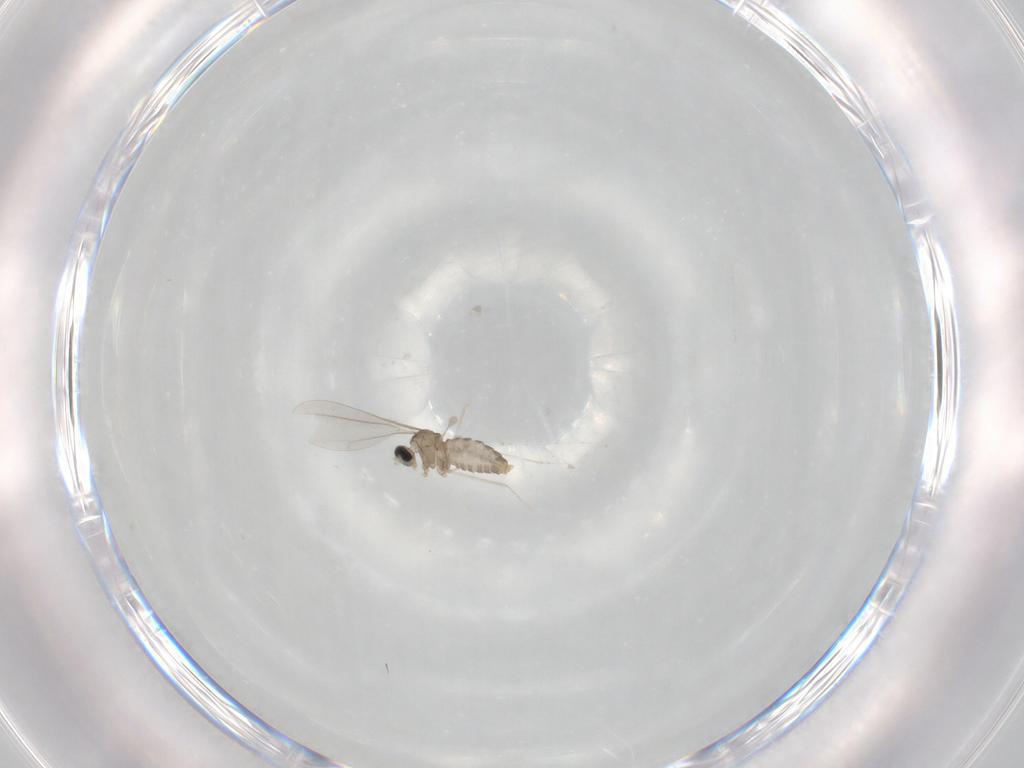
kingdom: Animalia
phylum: Arthropoda
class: Insecta
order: Diptera
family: Cecidomyiidae
